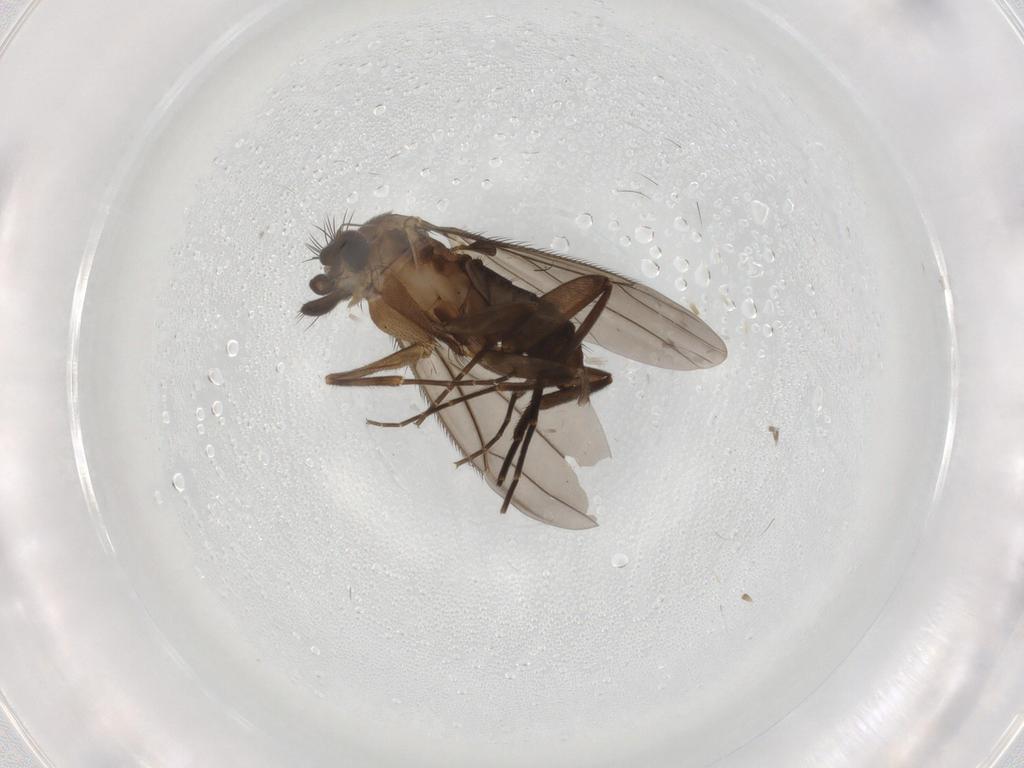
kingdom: Animalia
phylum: Arthropoda
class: Insecta
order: Diptera
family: Phoridae
